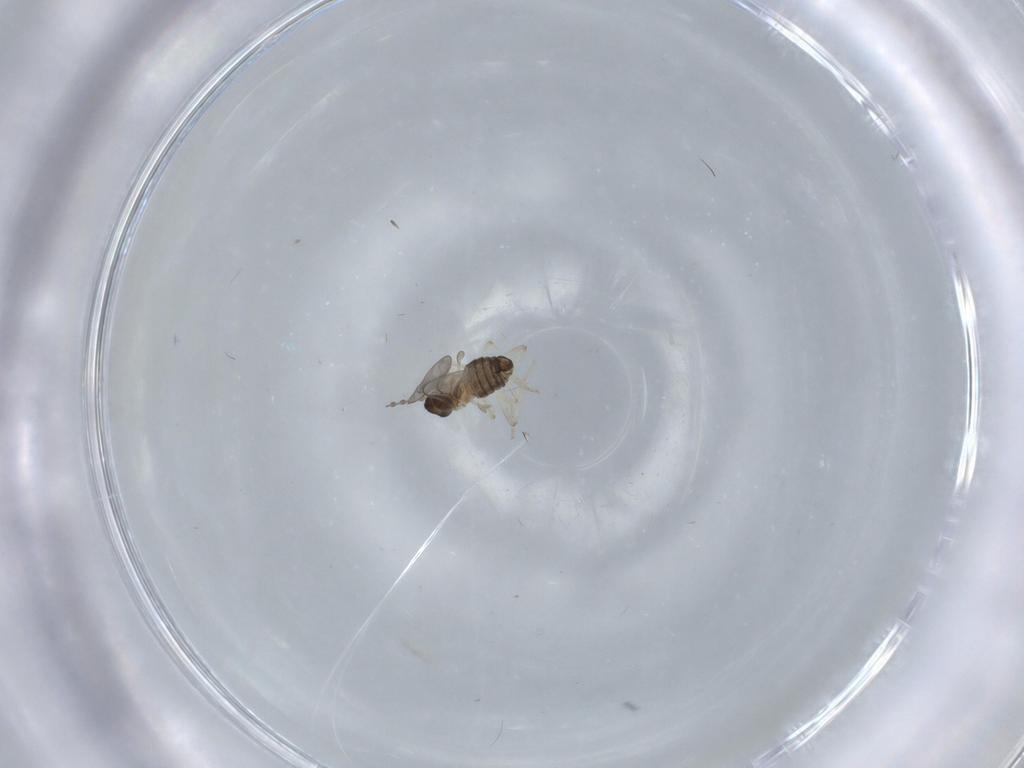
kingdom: Animalia
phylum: Arthropoda
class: Insecta
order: Diptera
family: Cecidomyiidae
